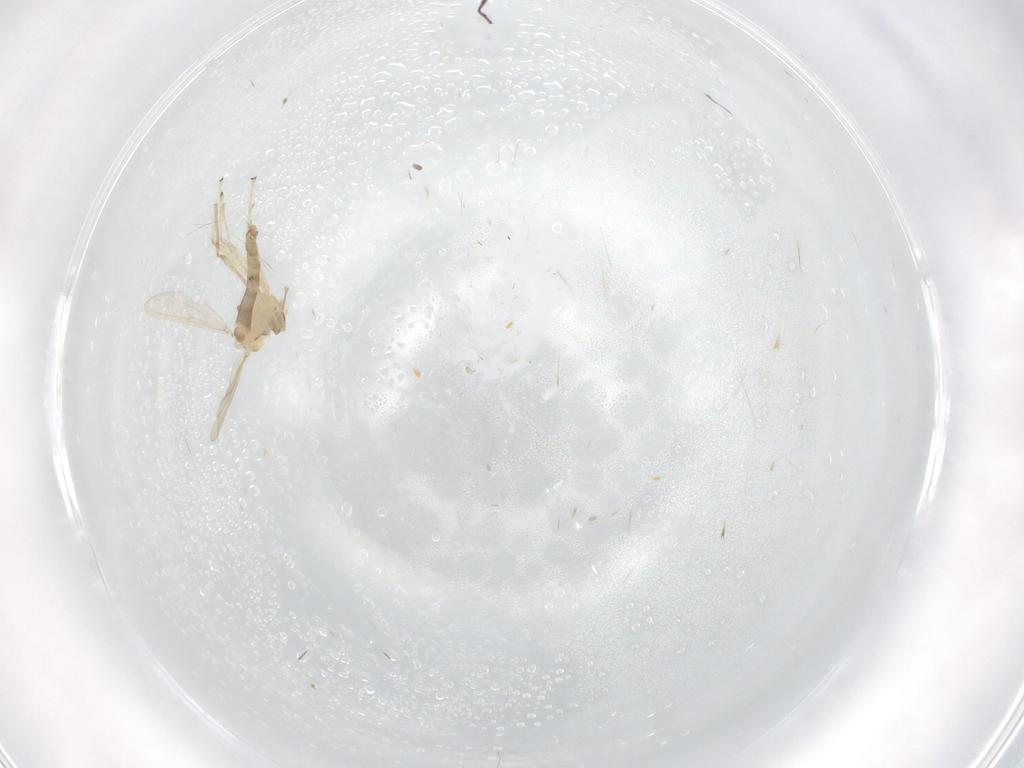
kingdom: Animalia
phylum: Arthropoda
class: Insecta
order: Diptera
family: Chironomidae
